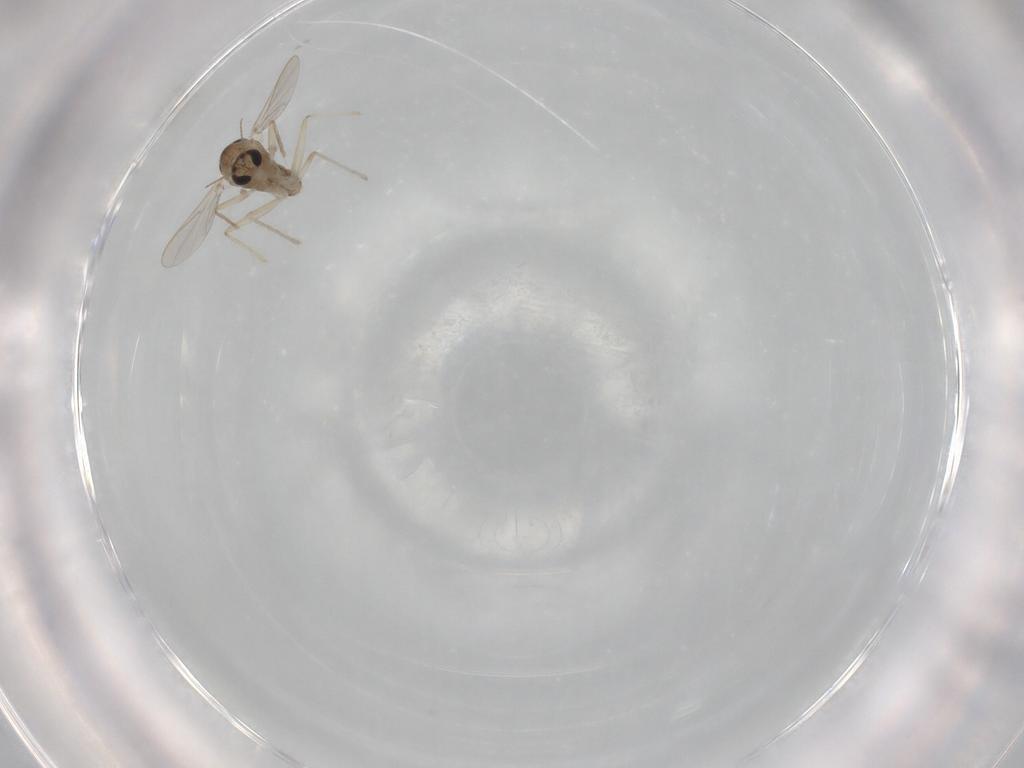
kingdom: Animalia
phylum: Arthropoda
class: Insecta
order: Diptera
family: Chironomidae
